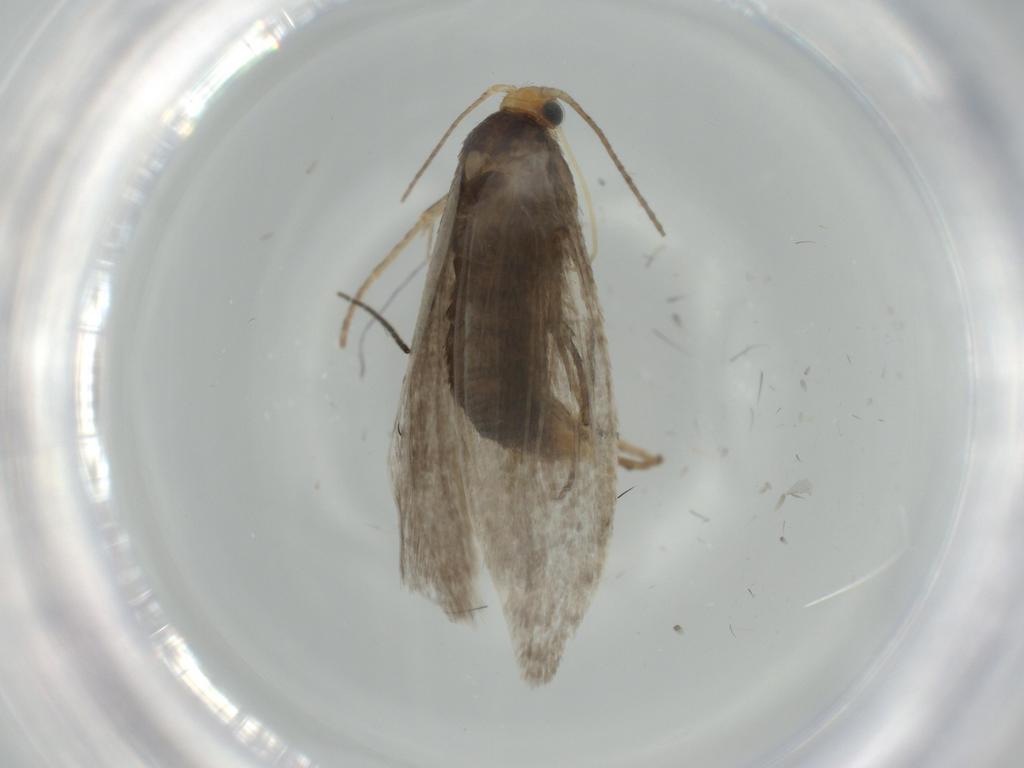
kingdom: Animalia
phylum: Arthropoda
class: Insecta
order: Lepidoptera
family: Argyresthiidae
